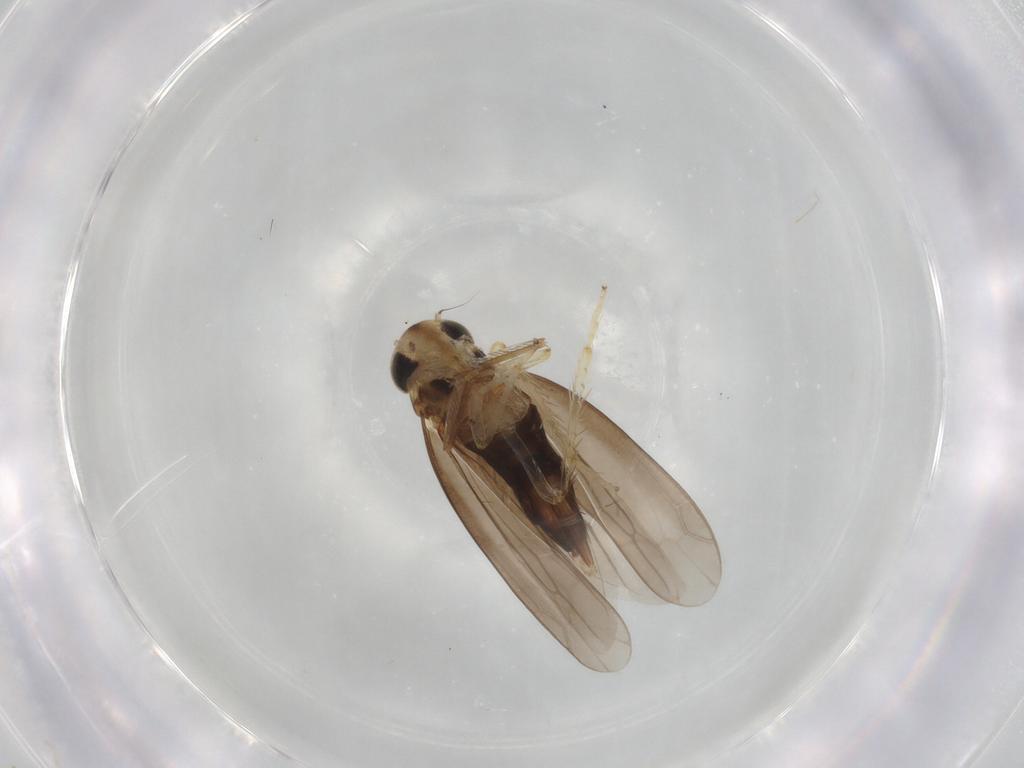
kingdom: Animalia
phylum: Arthropoda
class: Insecta
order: Hemiptera
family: Cicadellidae
